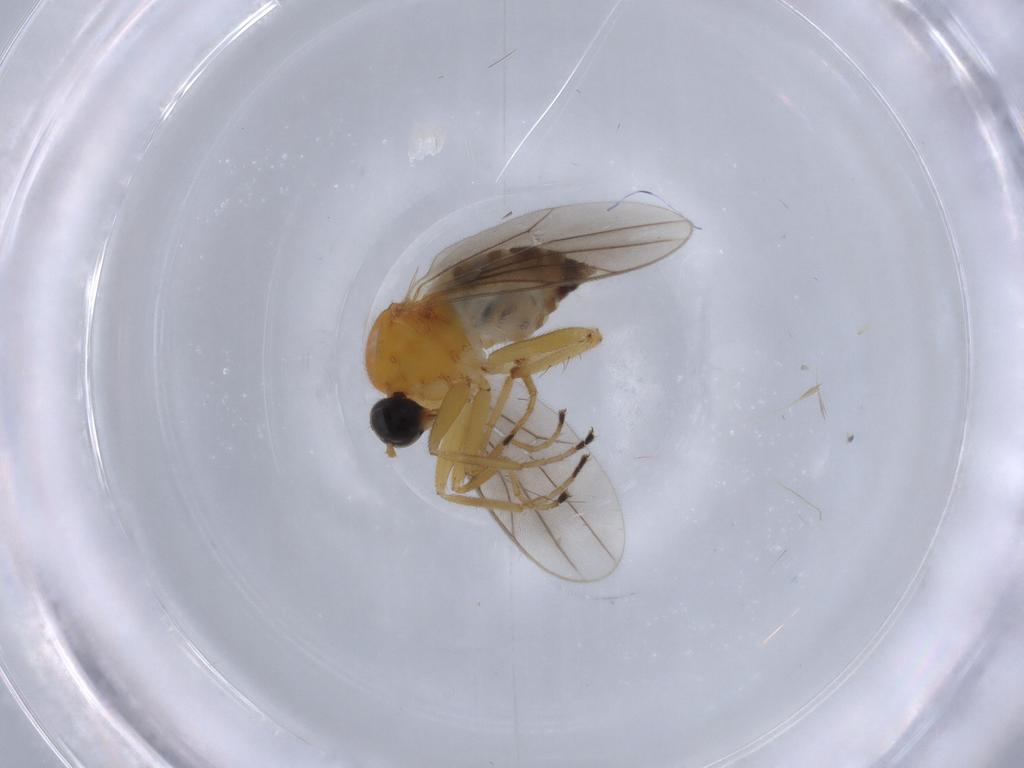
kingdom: Animalia
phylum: Arthropoda
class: Insecta
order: Diptera
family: Hybotidae
